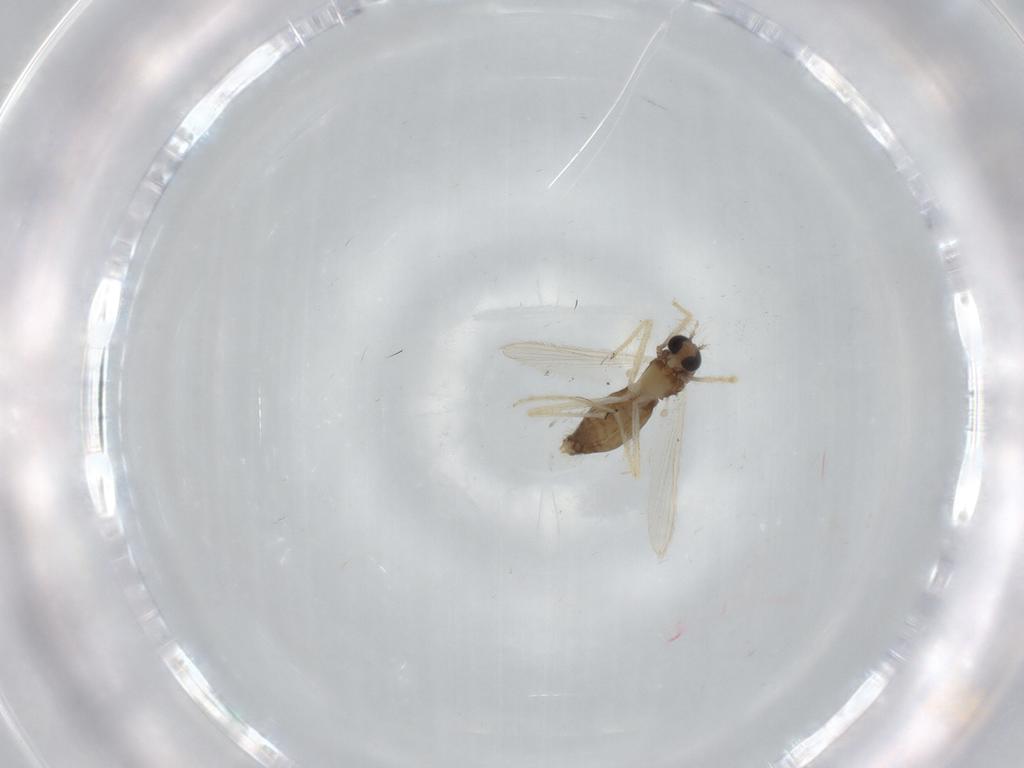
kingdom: Animalia
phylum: Arthropoda
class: Insecta
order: Diptera
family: Chironomidae
